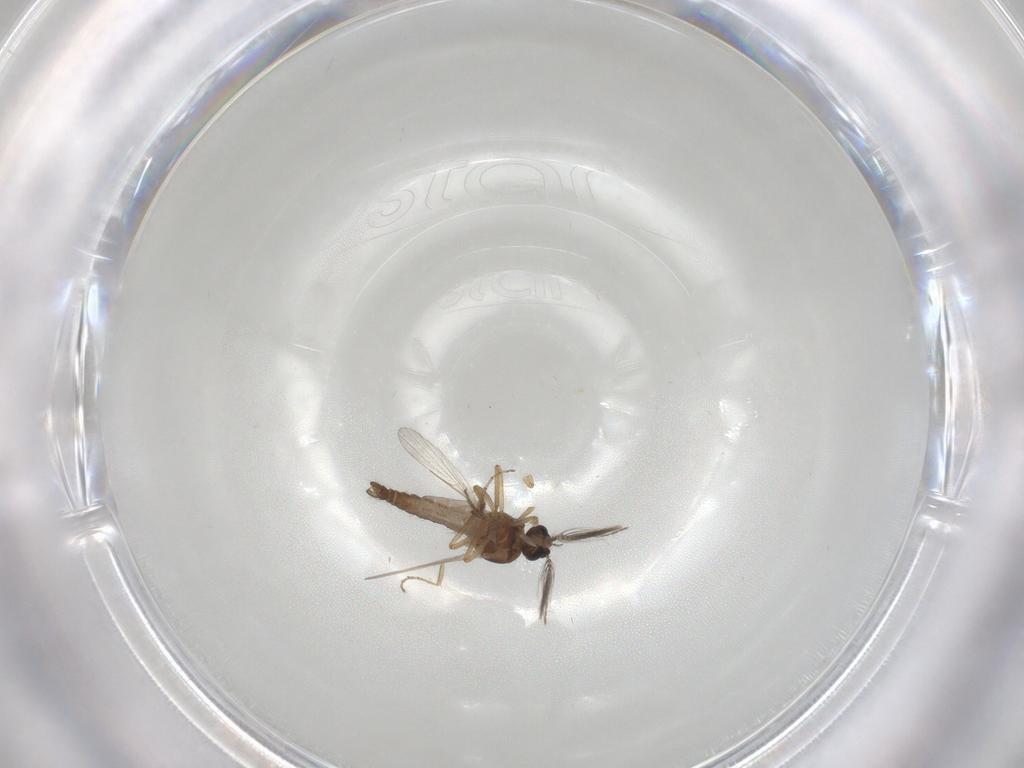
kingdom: Animalia
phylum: Arthropoda
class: Insecta
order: Diptera
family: Ceratopogonidae
